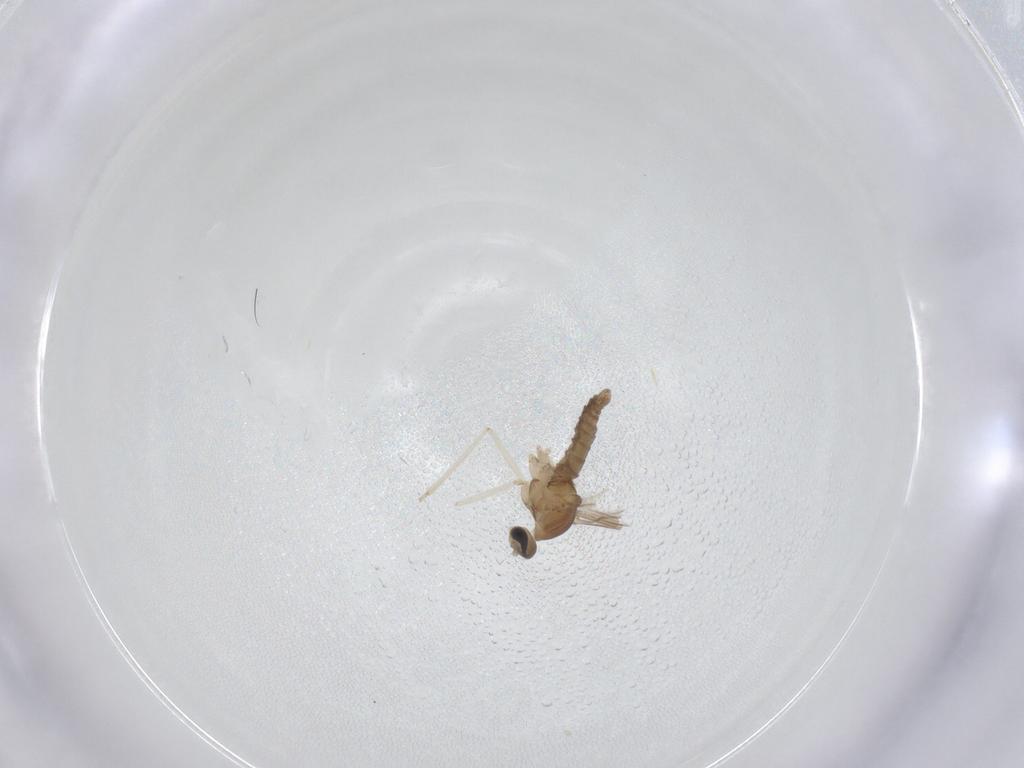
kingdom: Animalia
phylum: Arthropoda
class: Insecta
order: Diptera
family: Cecidomyiidae
